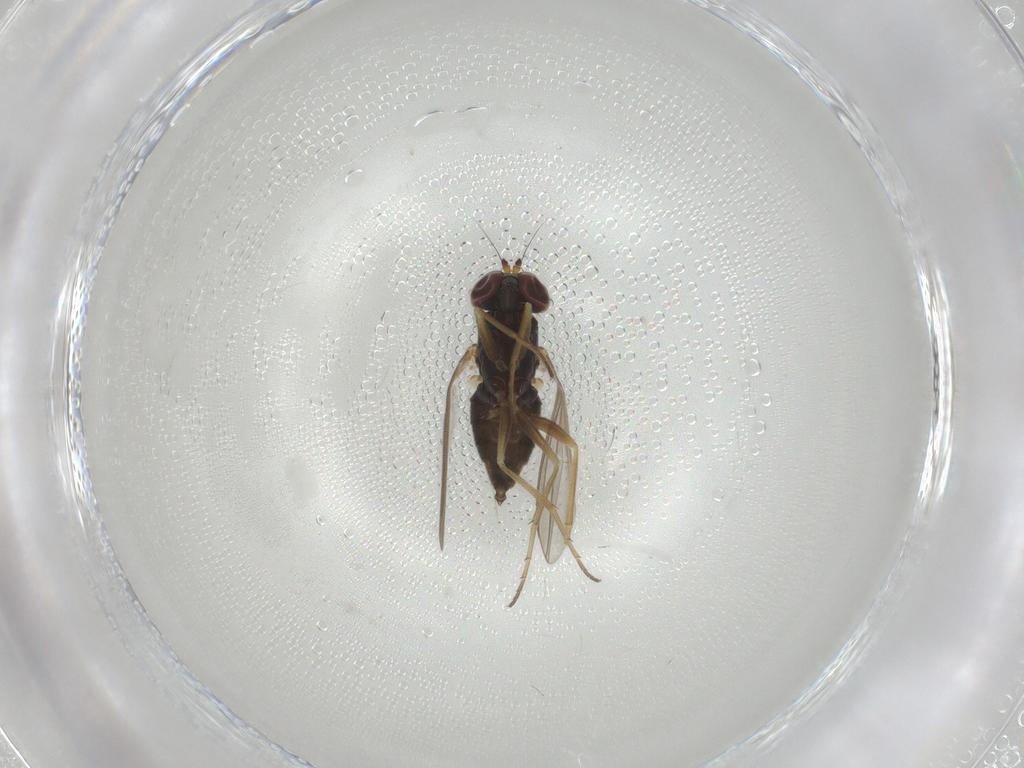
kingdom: Animalia
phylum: Arthropoda
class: Insecta
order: Diptera
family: Dolichopodidae
